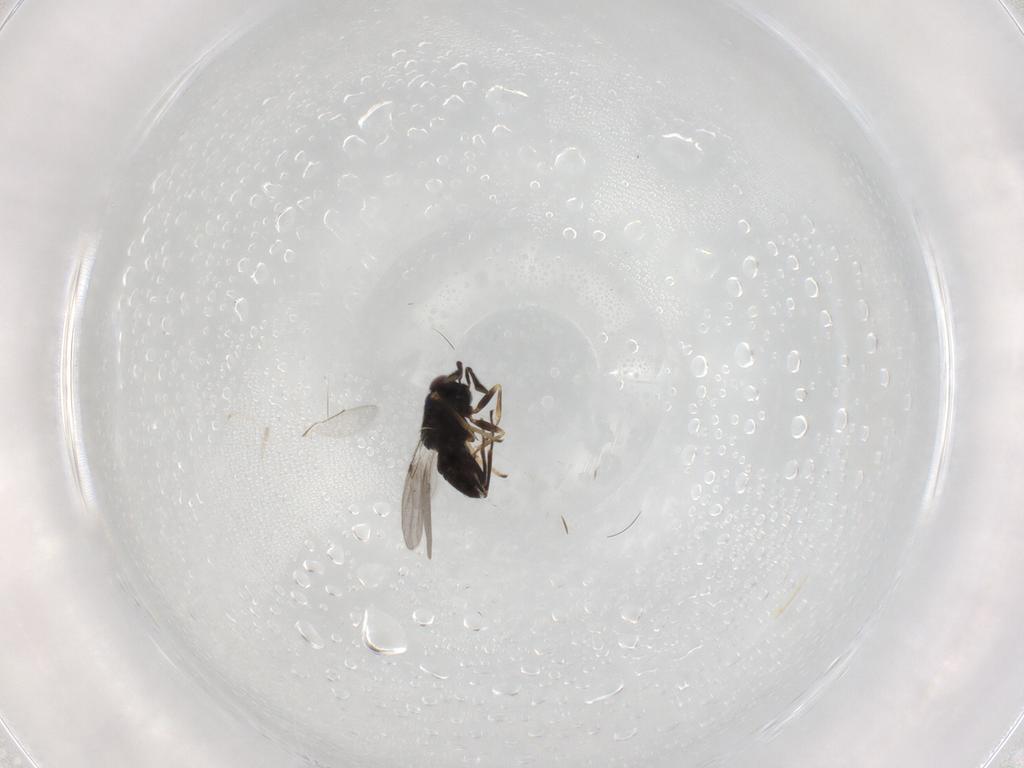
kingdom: Animalia
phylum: Arthropoda
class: Insecta
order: Hymenoptera
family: Encyrtidae
